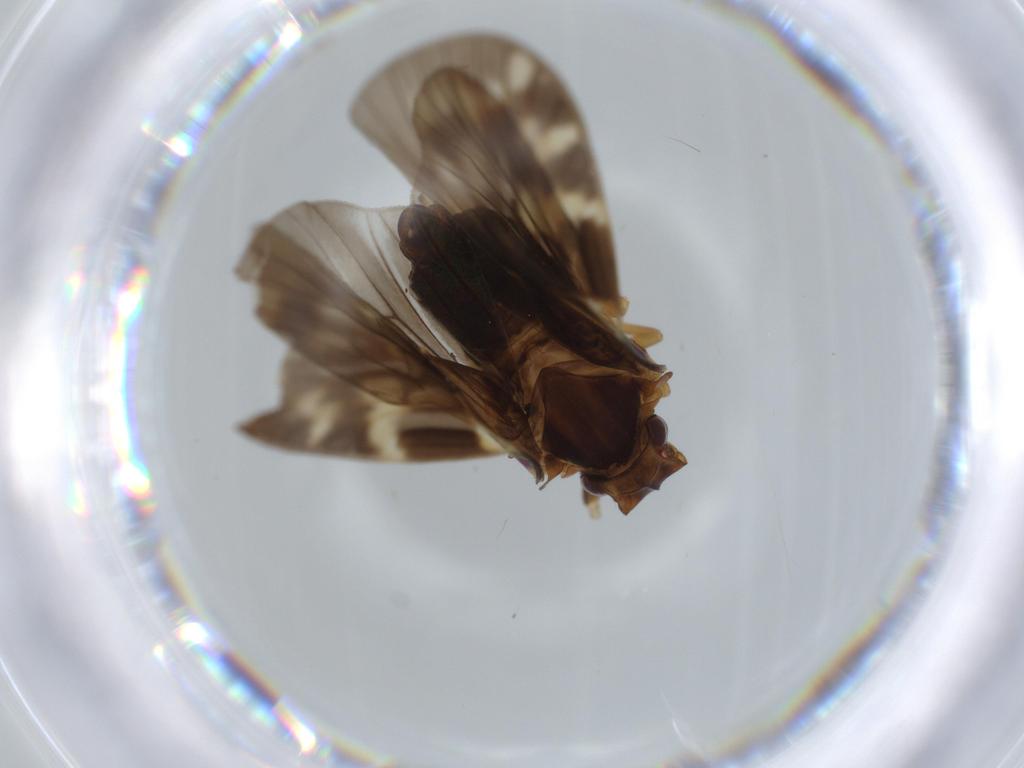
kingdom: Animalia
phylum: Arthropoda
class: Insecta
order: Hemiptera
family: Cixiidae
